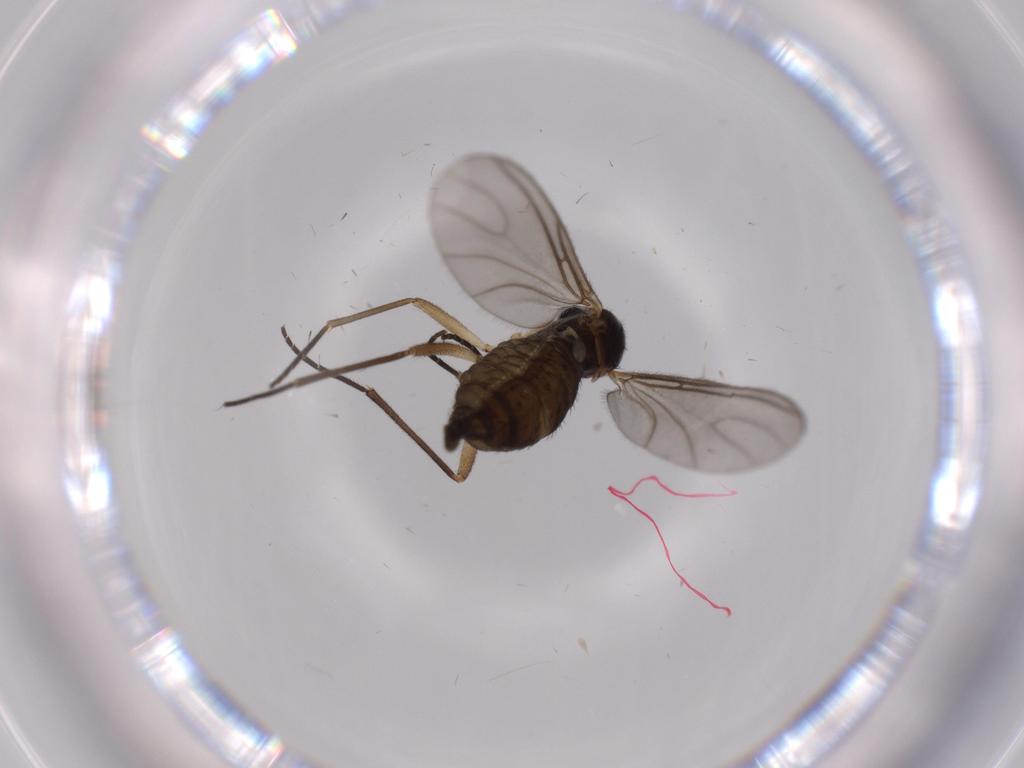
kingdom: Animalia
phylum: Arthropoda
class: Insecta
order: Diptera
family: Sciaridae
